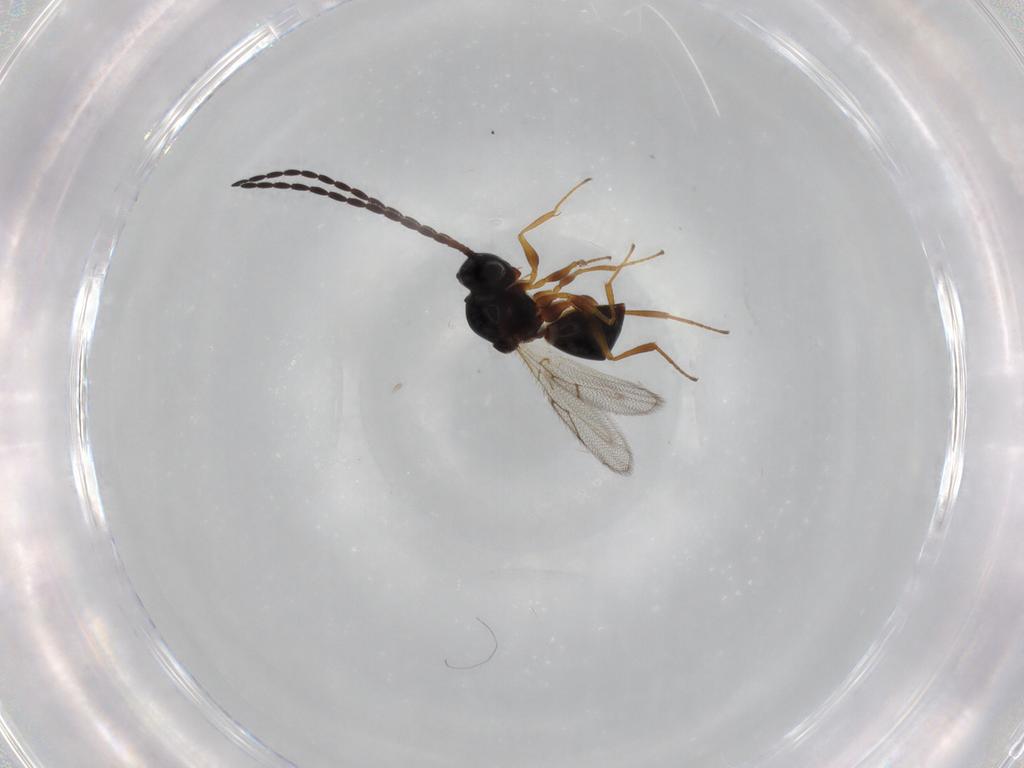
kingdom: Animalia
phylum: Arthropoda
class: Insecta
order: Hymenoptera
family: Figitidae
